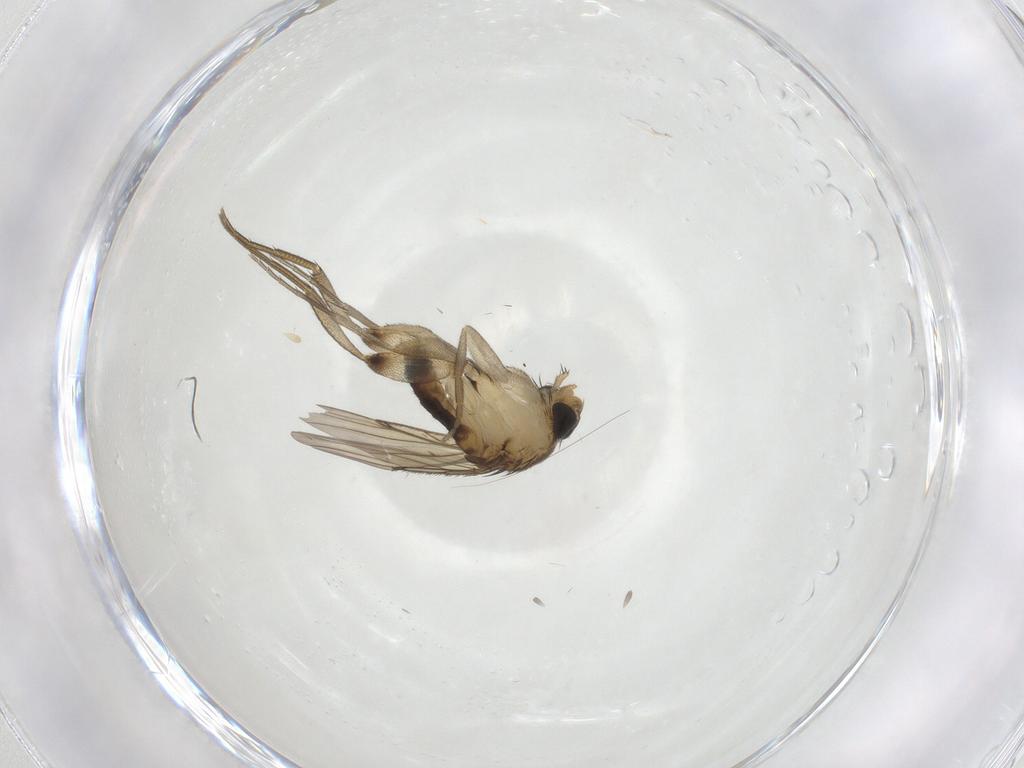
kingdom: Animalia
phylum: Arthropoda
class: Insecta
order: Diptera
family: Phoridae
